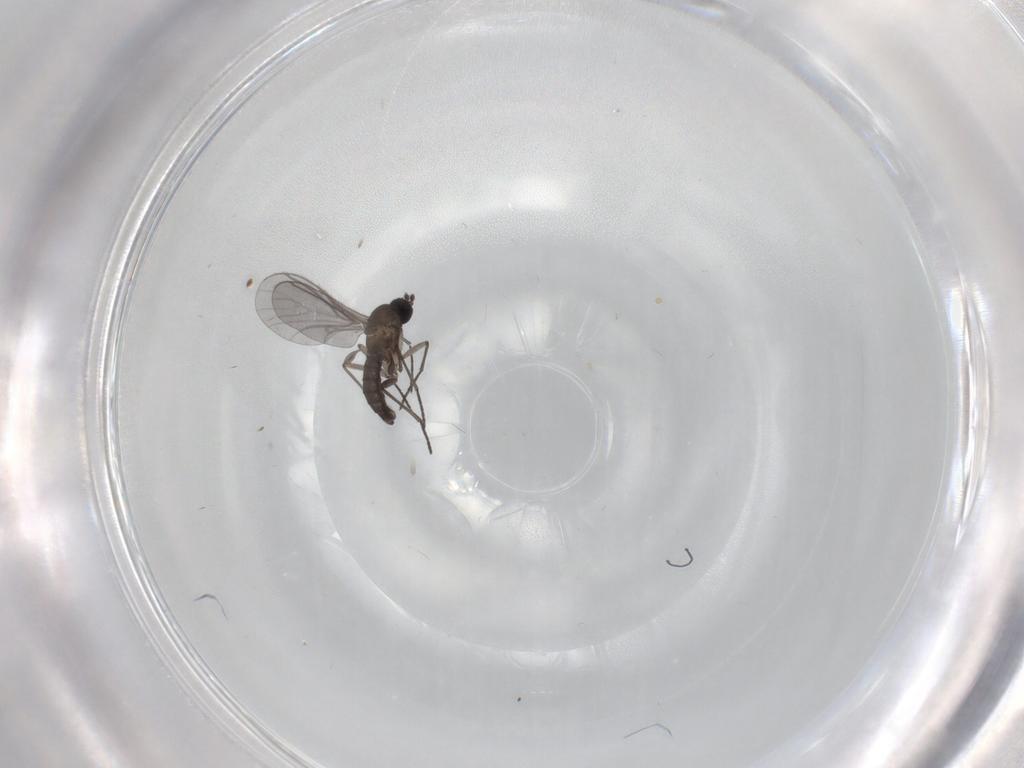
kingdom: Animalia
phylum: Arthropoda
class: Insecta
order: Diptera
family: Sciaridae
